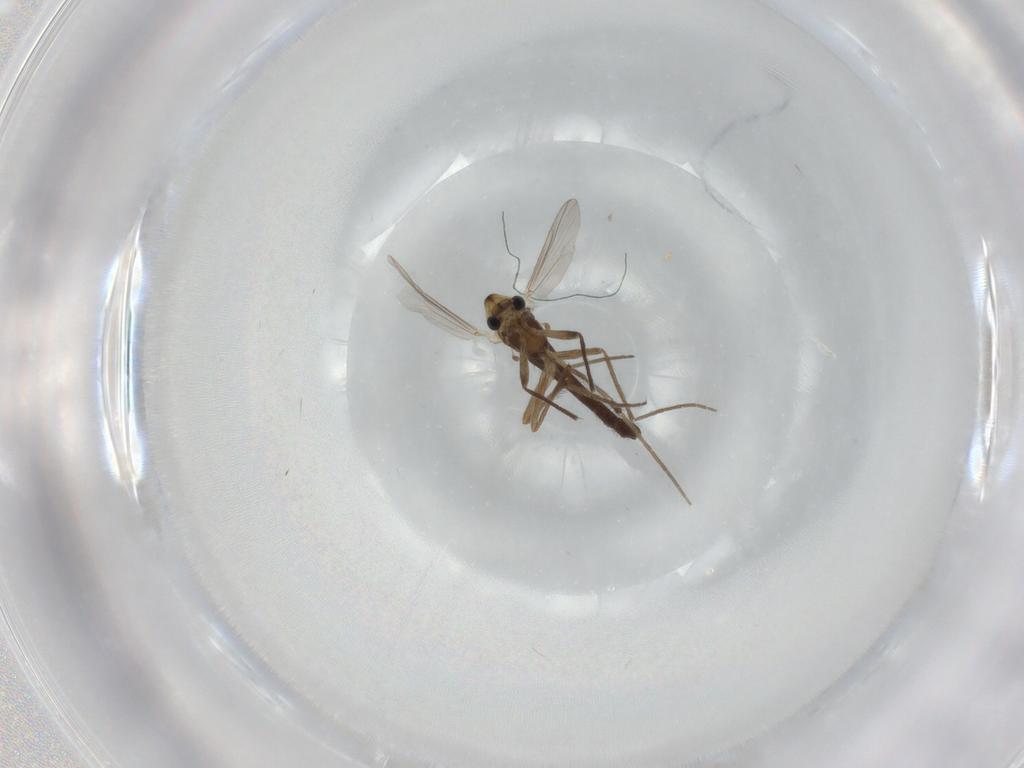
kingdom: Animalia
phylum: Arthropoda
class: Insecta
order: Diptera
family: Chironomidae
